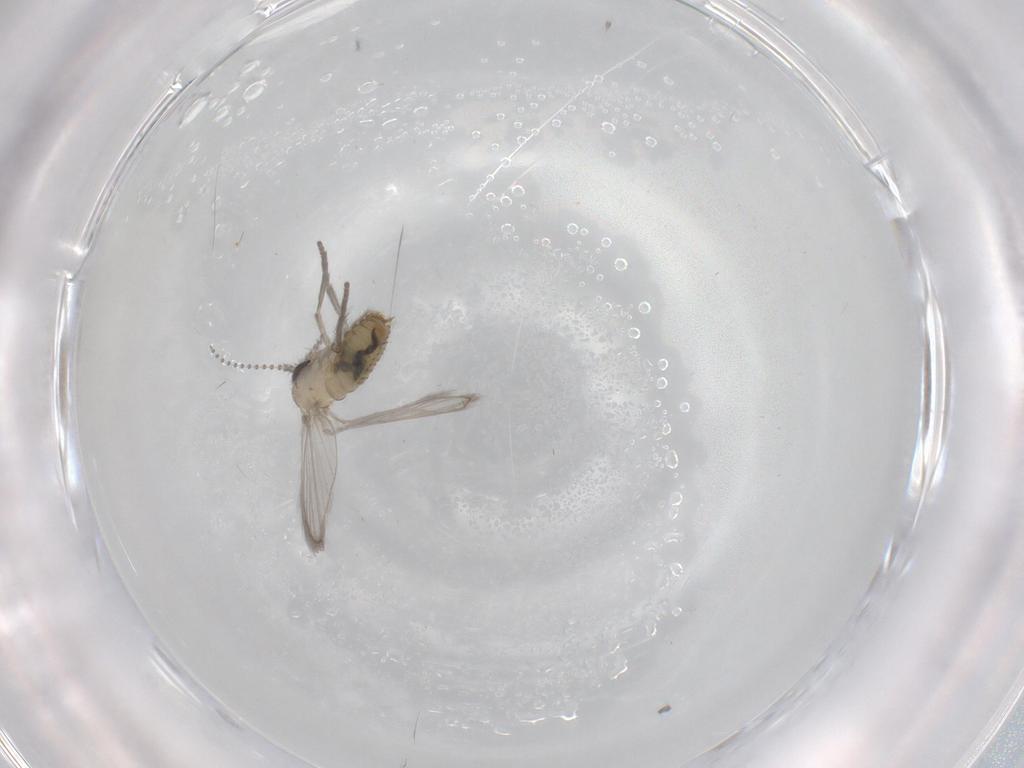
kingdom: Animalia
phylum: Arthropoda
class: Insecta
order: Diptera
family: Psychodidae
